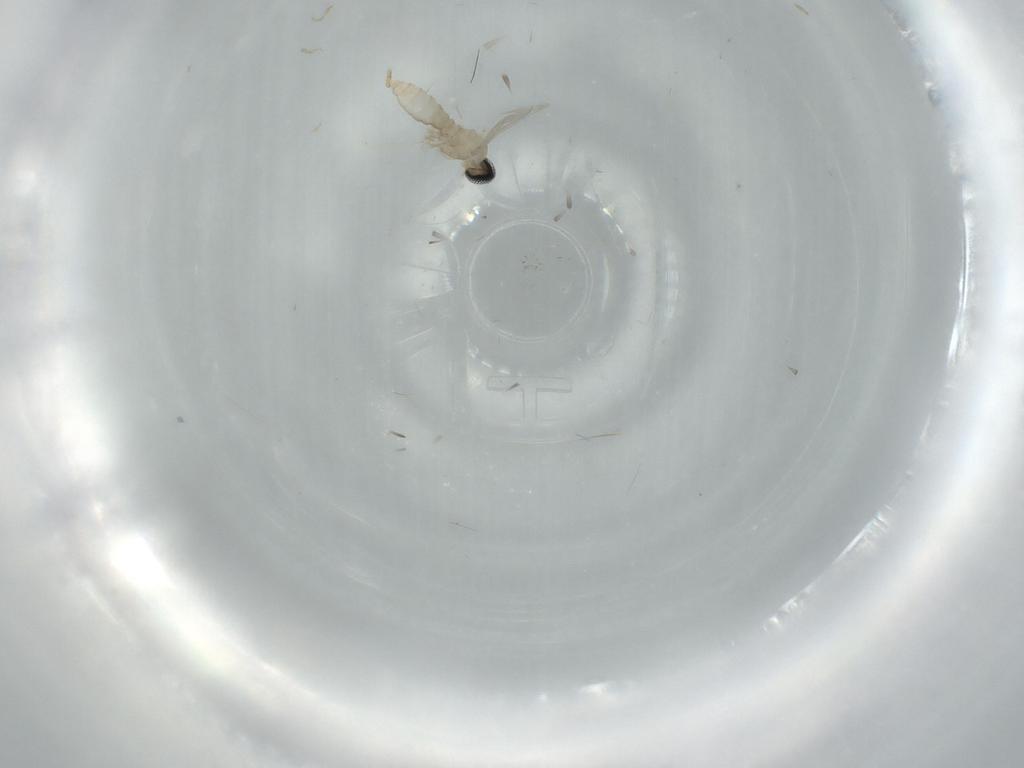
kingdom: Animalia
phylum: Arthropoda
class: Insecta
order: Diptera
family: Cecidomyiidae
